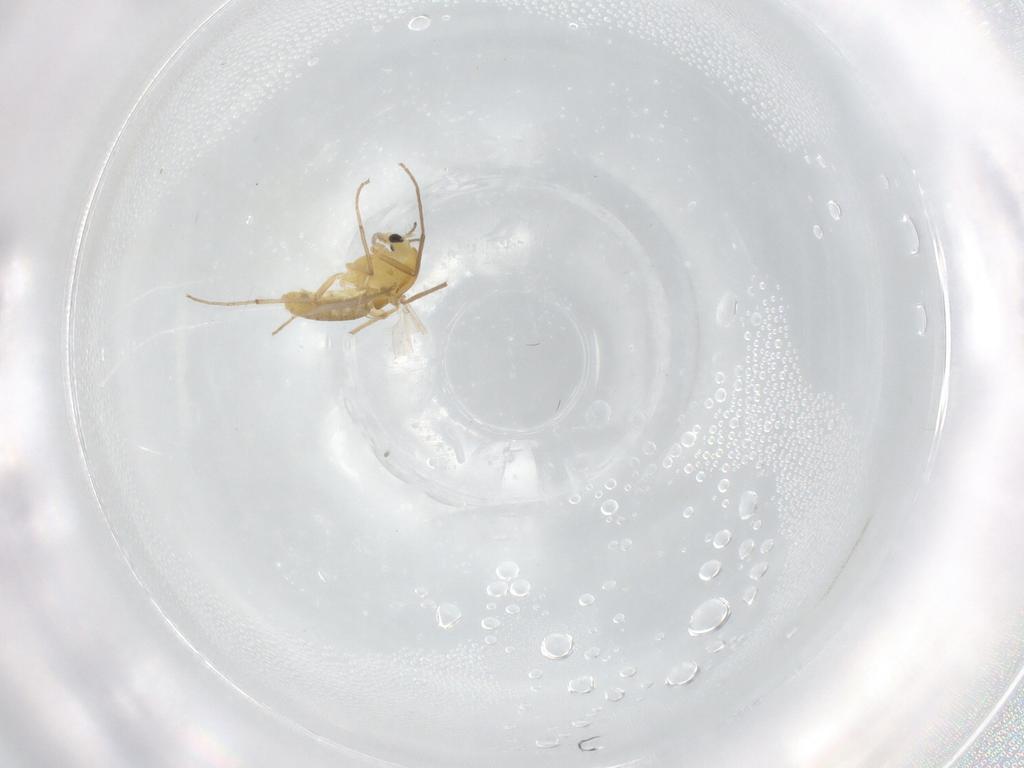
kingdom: Animalia
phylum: Arthropoda
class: Insecta
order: Diptera
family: Chironomidae
